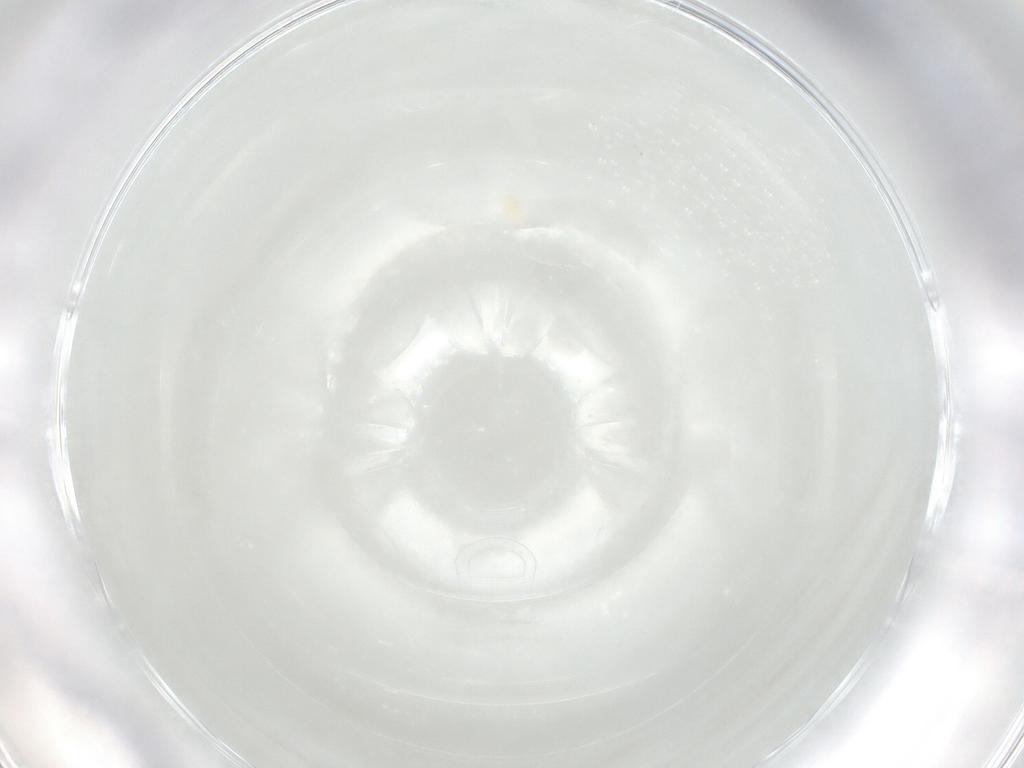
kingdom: Animalia
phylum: Arthropoda
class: Arachnida
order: Trombidiformes
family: Eupodidae
